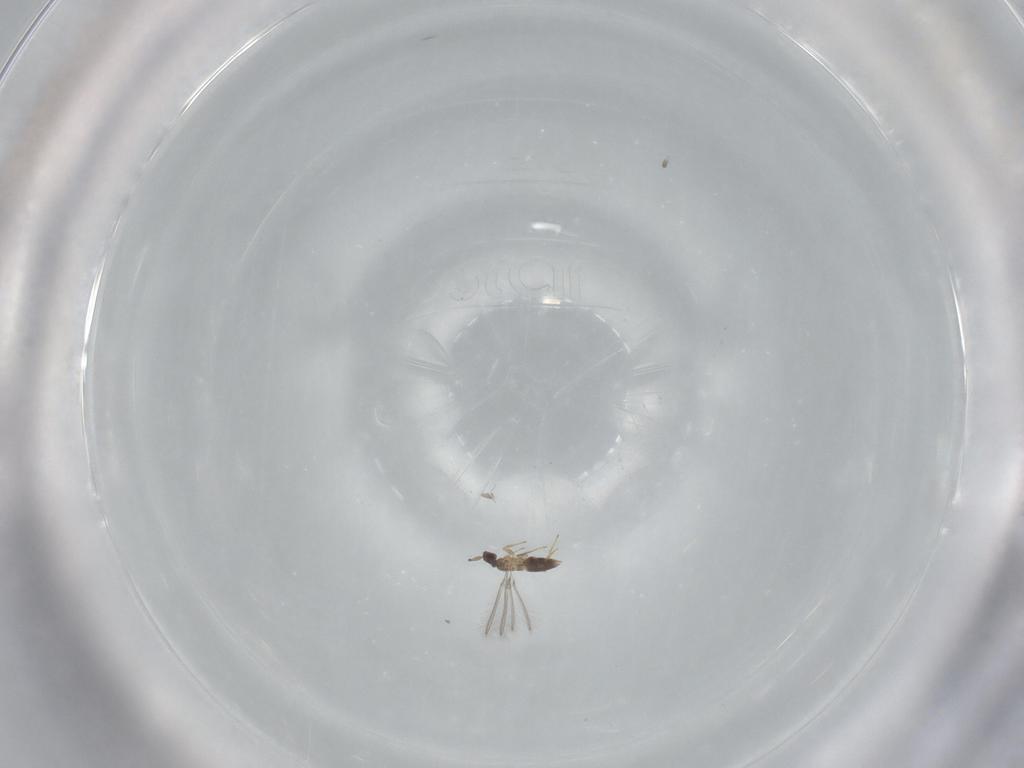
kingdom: Animalia
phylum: Arthropoda
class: Insecta
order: Hymenoptera
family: Mymaridae
